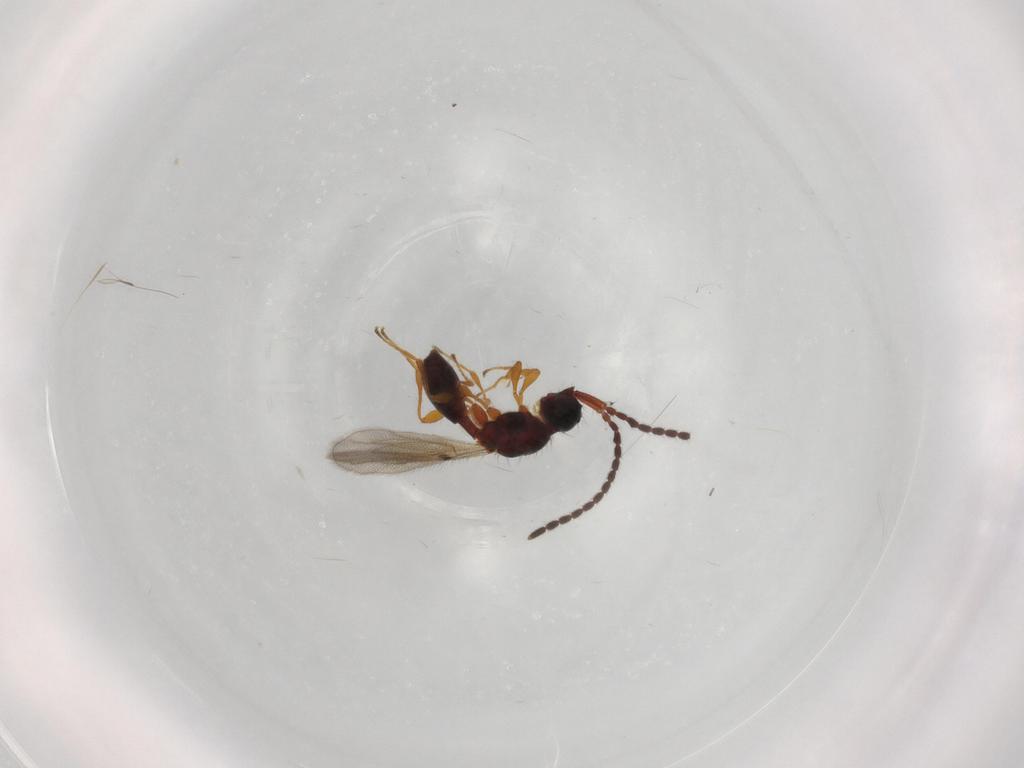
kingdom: Animalia
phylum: Arthropoda
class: Insecta
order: Hymenoptera
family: Diapriidae
